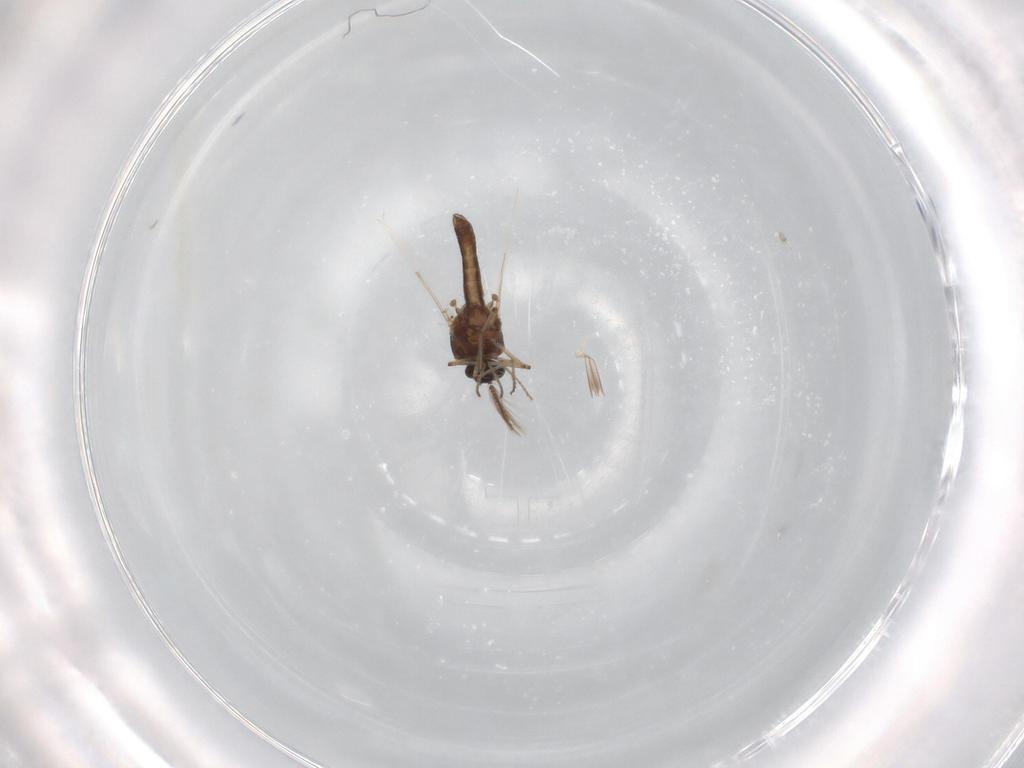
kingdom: Animalia
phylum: Arthropoda
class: Insecta
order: Diptera
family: Ceratopogonidae
